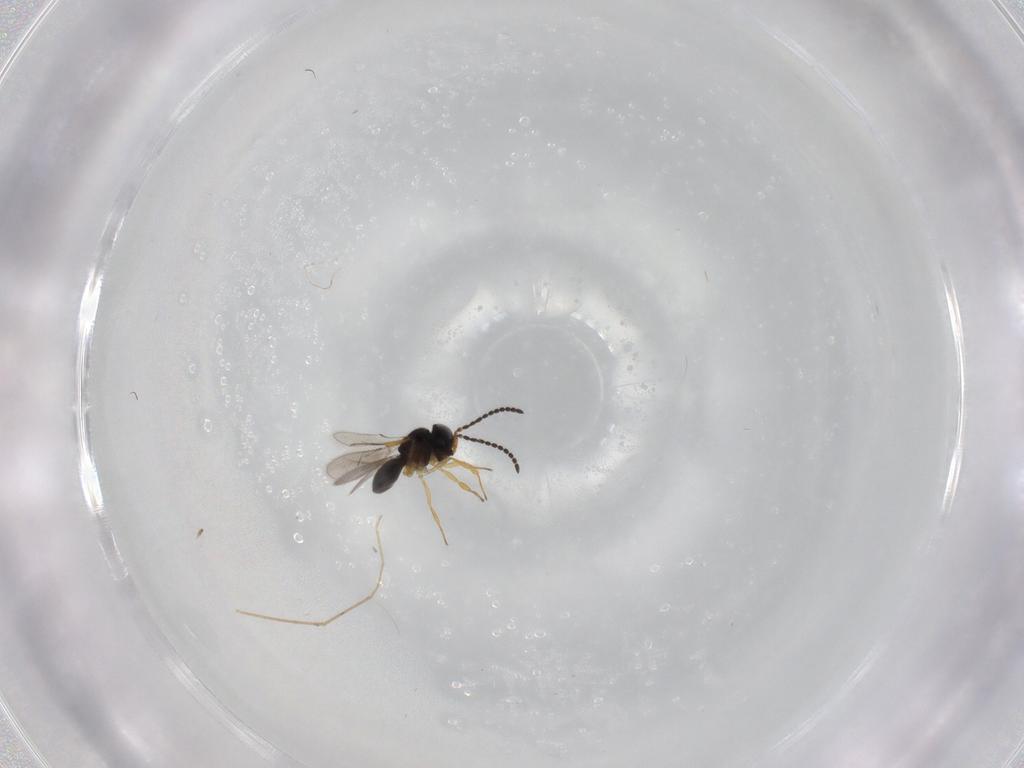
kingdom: Animalia
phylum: Arthropoda
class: Insecta
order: Hymenoptera
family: Scelionidae
